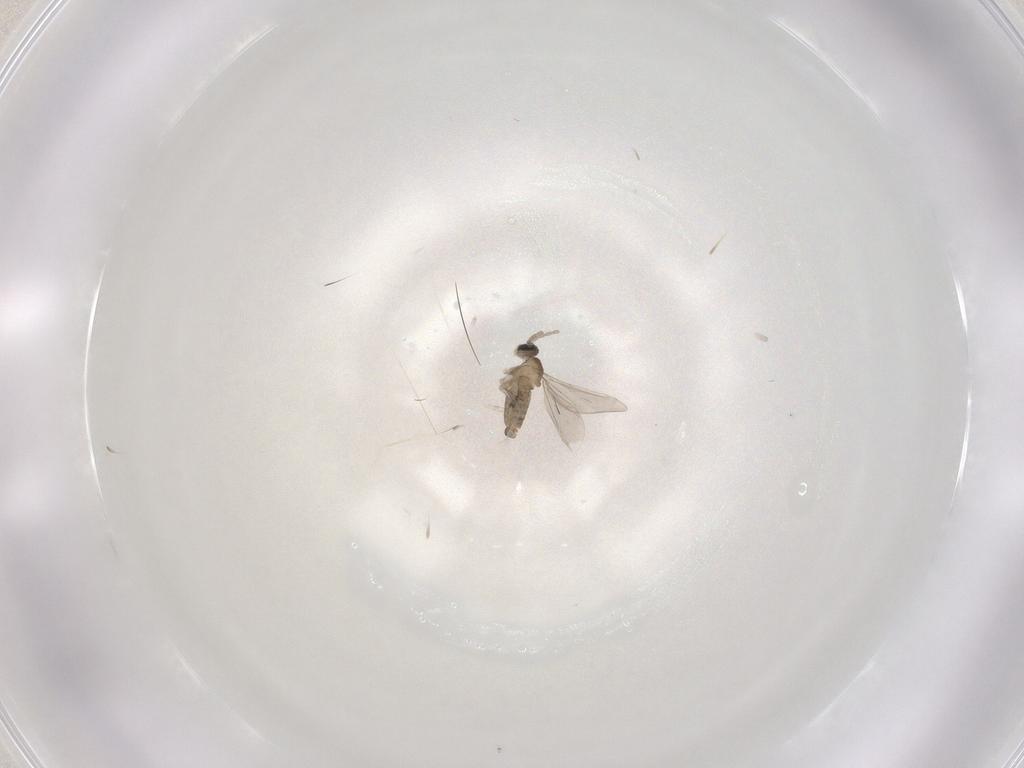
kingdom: Animalia
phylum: Arthropoda
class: Insecta
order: Diptera
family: Cecidomyiidae
